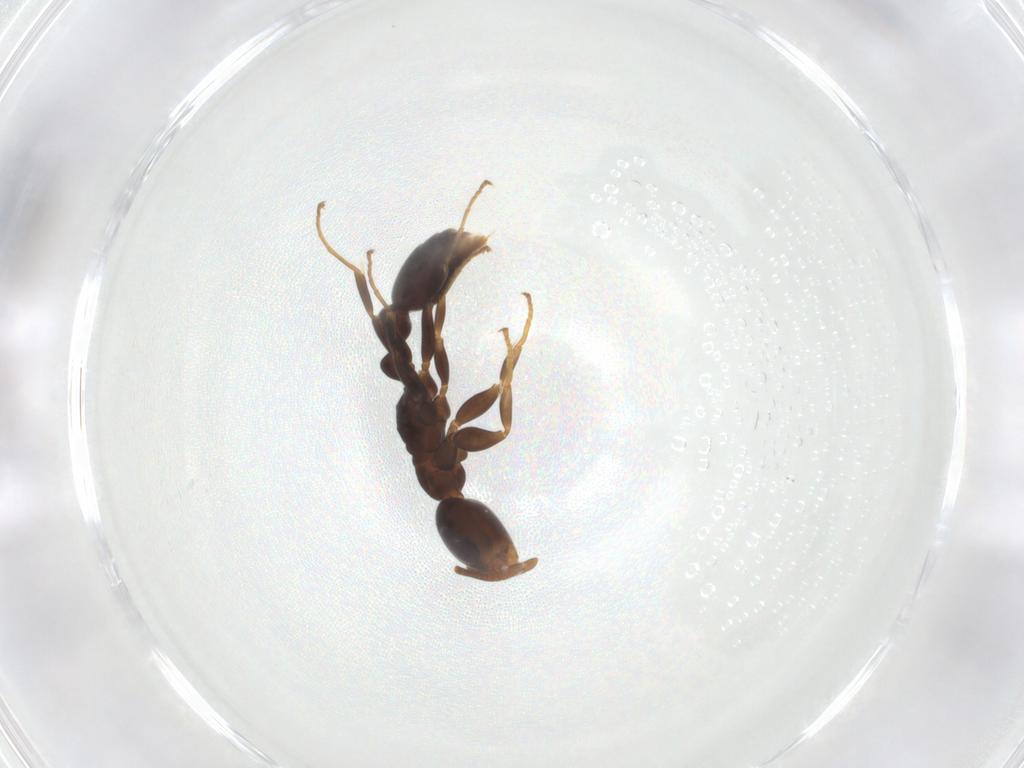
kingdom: Animalia
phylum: Arthropoda
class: Insecta
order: Hymenoptera
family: Formicidae
